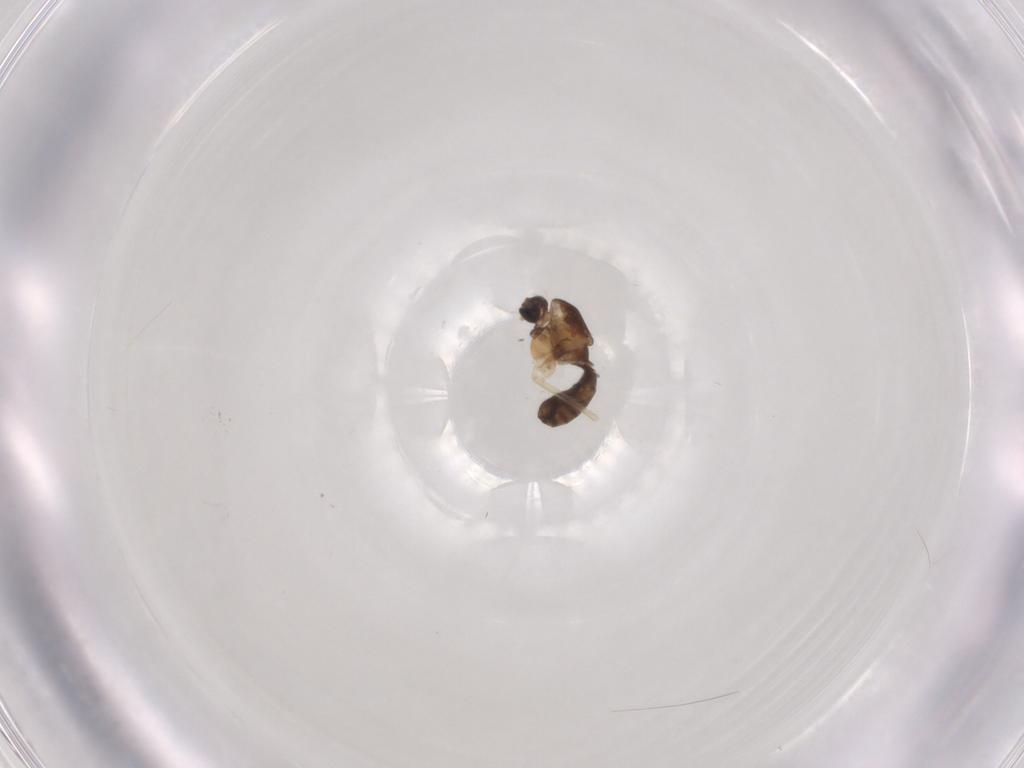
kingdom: Animalia
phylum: Arthropoda
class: Insecta
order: Diptera
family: Chironomidae
